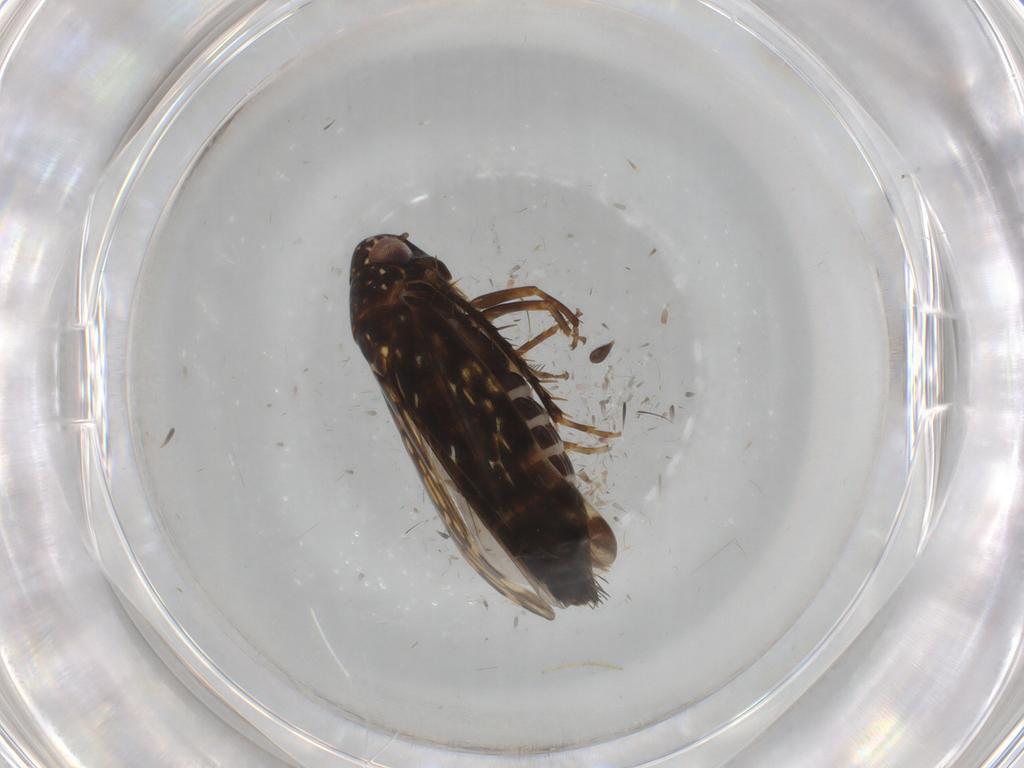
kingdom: Animalia
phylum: Arthropoda
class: Insecta
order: Hemiptera
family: Cicadellidae
